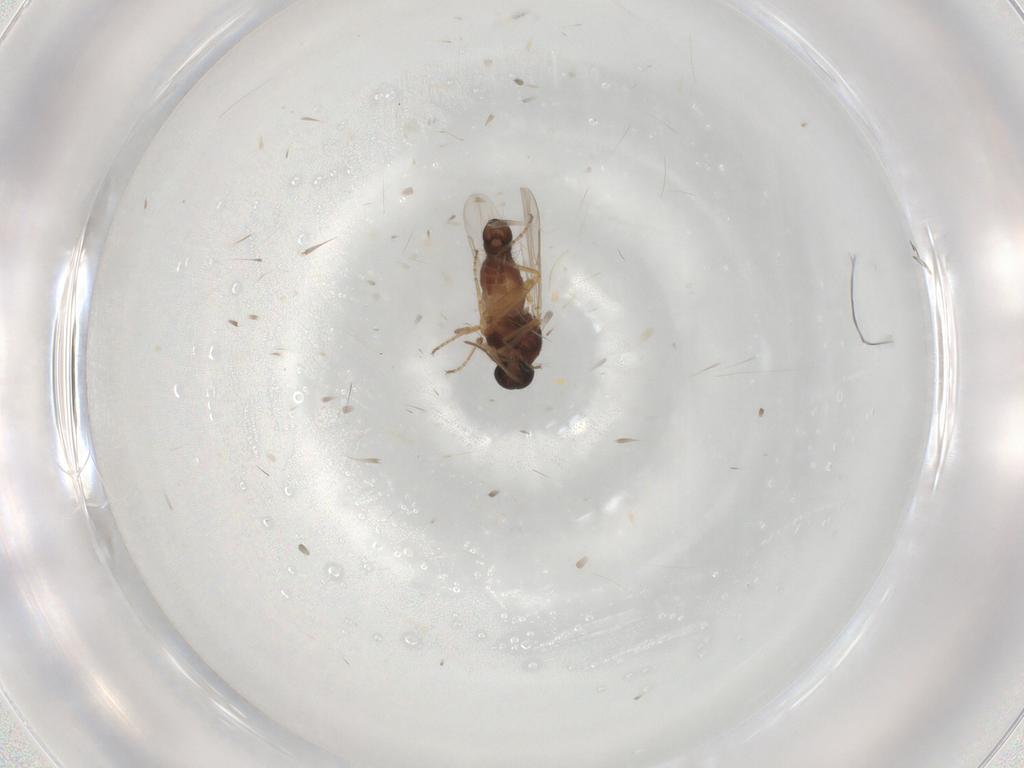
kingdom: Animalia
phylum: Arthropoda
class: Insecta
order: Diptera
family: Ceratopogonidae
